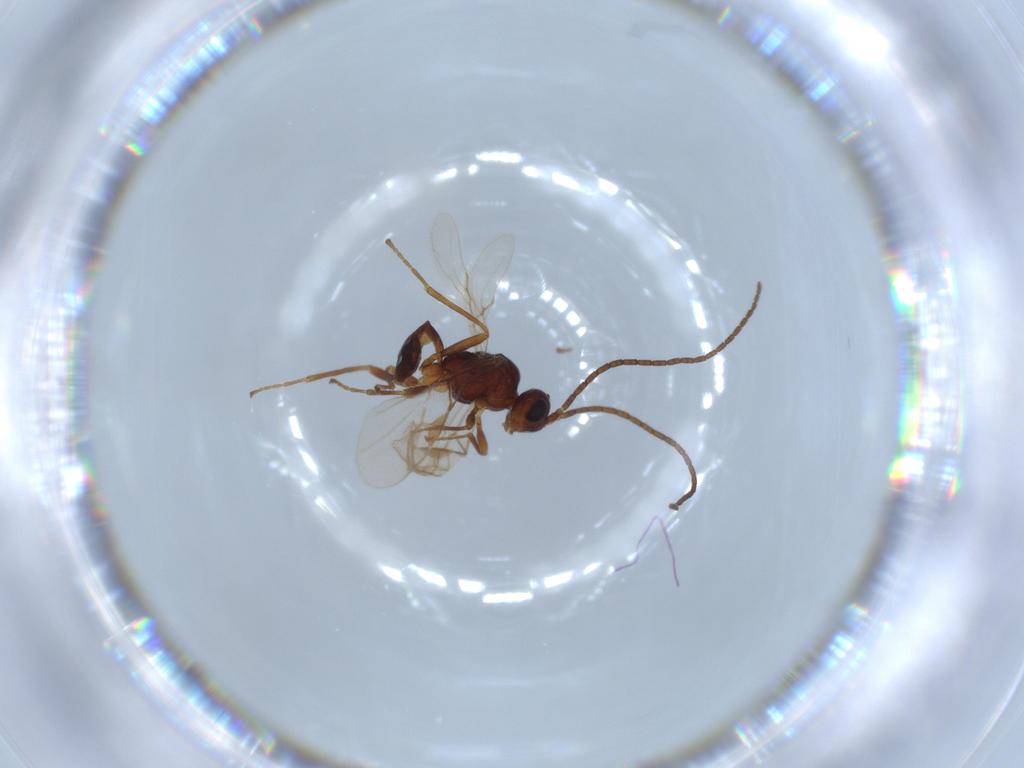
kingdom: Animalia
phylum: Arthropoda
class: Insecta
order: Hymenoptera
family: Braconidae
